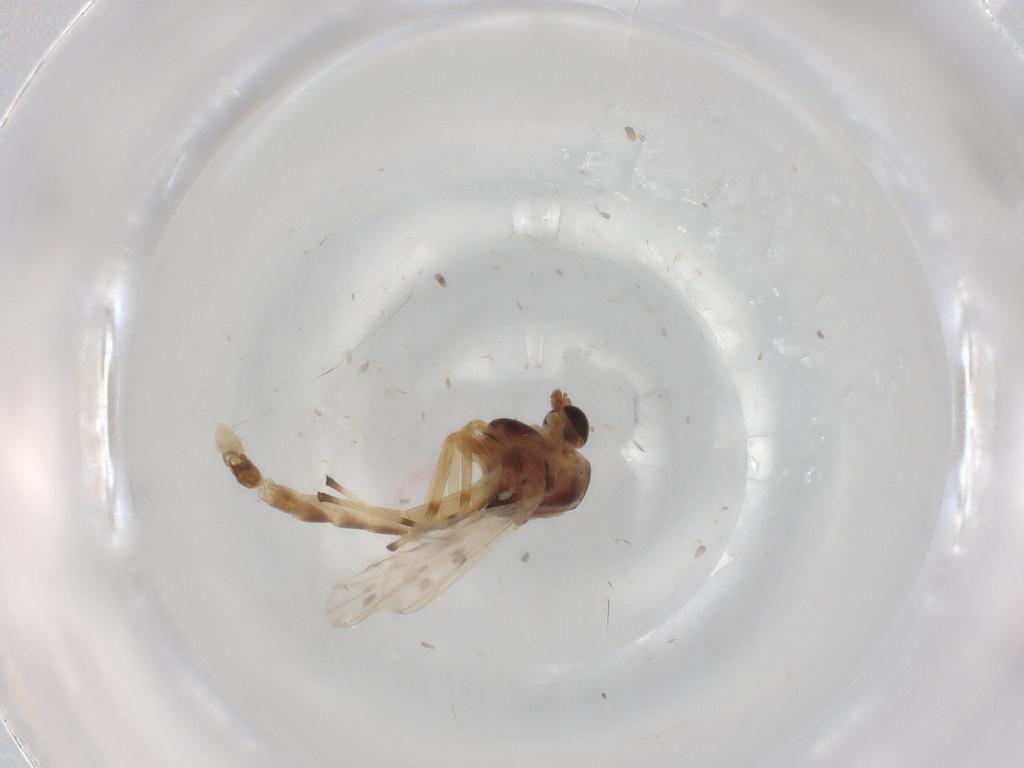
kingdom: Animalia
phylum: Arthropoda
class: Insecta
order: Diptera
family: Chironomidae
